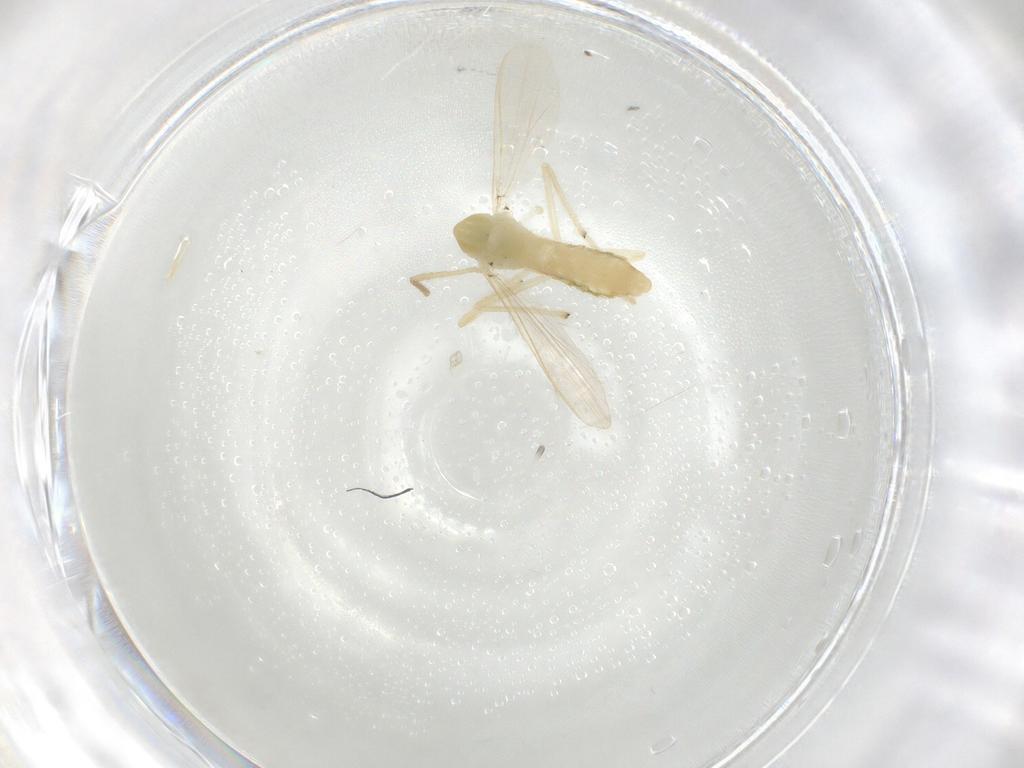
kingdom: Animalia
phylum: Arthropoda
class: Insecta
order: Diptera
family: Chironomidae
